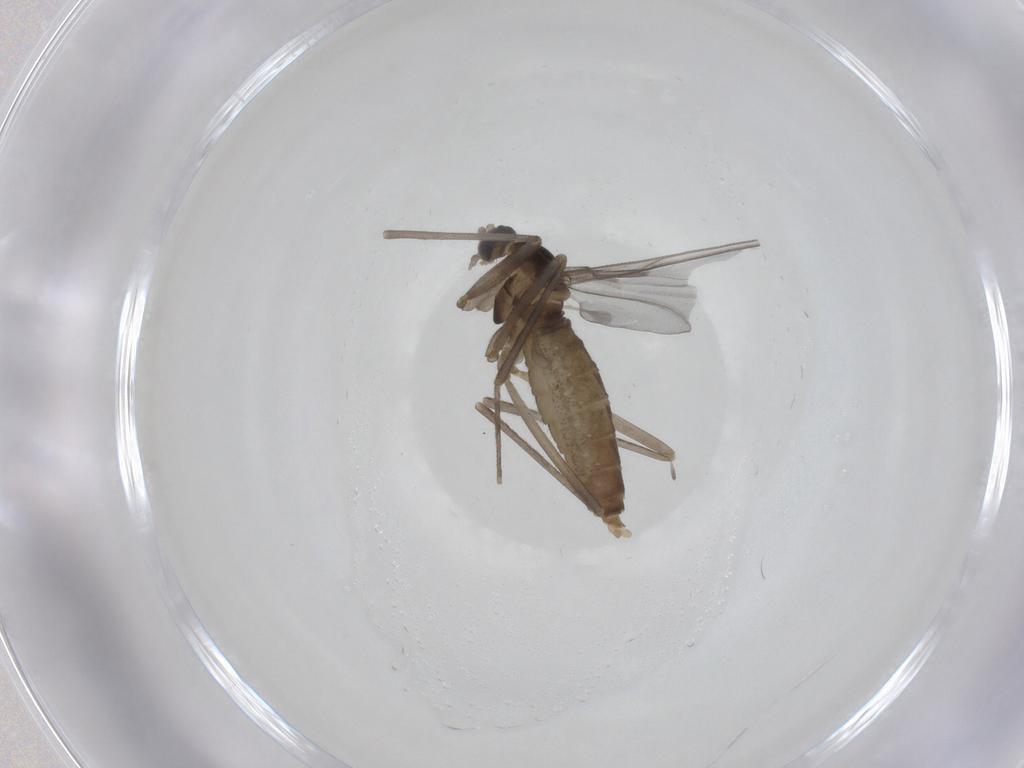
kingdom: Animalia
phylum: Arthropoda
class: Insecta
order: Diptera
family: Cecidomyiidae
